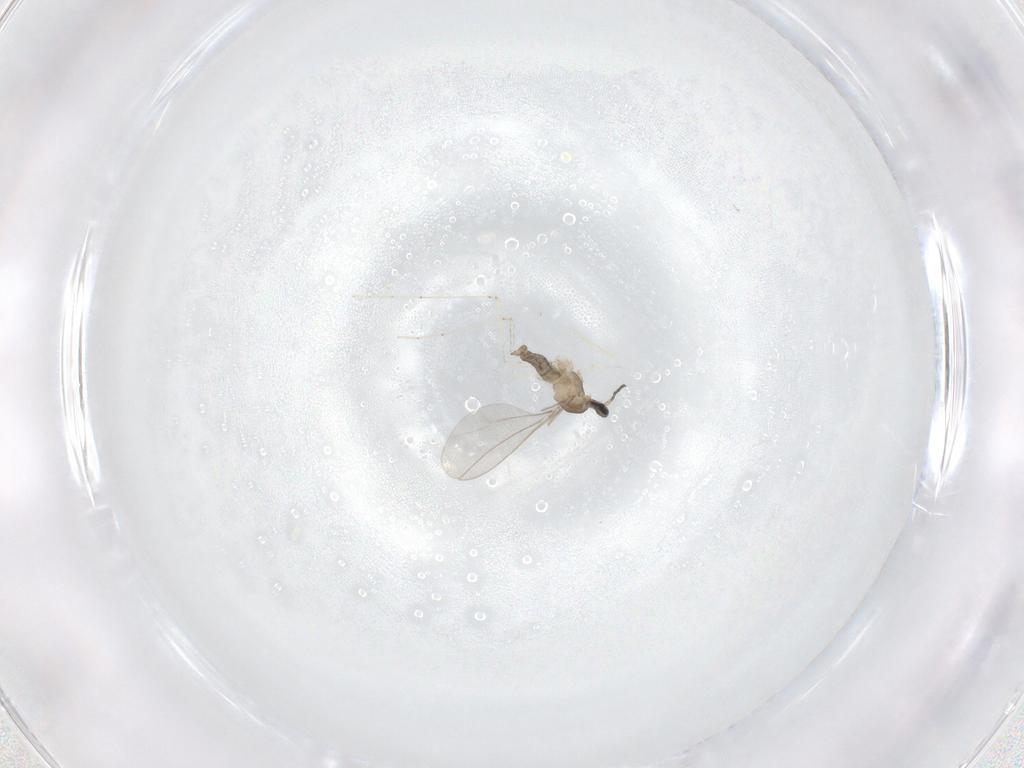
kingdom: Animalia
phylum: Arthropoda
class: Insecta
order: Diptera
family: Cecidomyiidae
